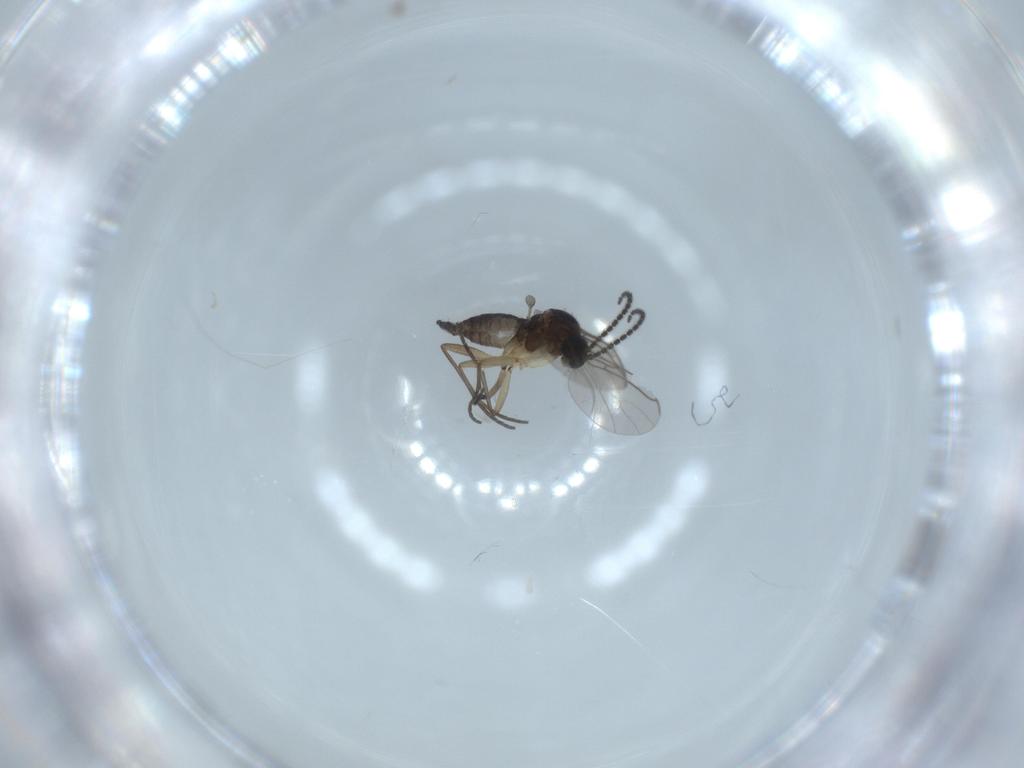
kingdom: Animalia
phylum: Arthropoda
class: Insecta
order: Diptera
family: Sciaridae
